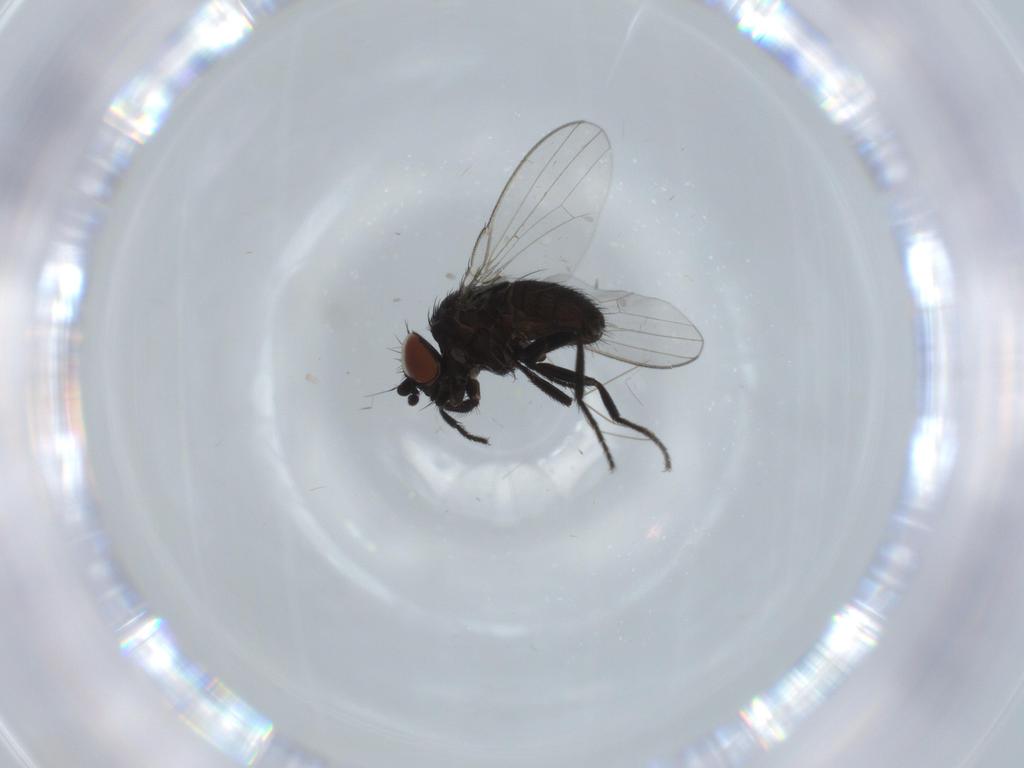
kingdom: Animalia
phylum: Arthropoda
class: Insecta
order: Diptera
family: Milichiidae
